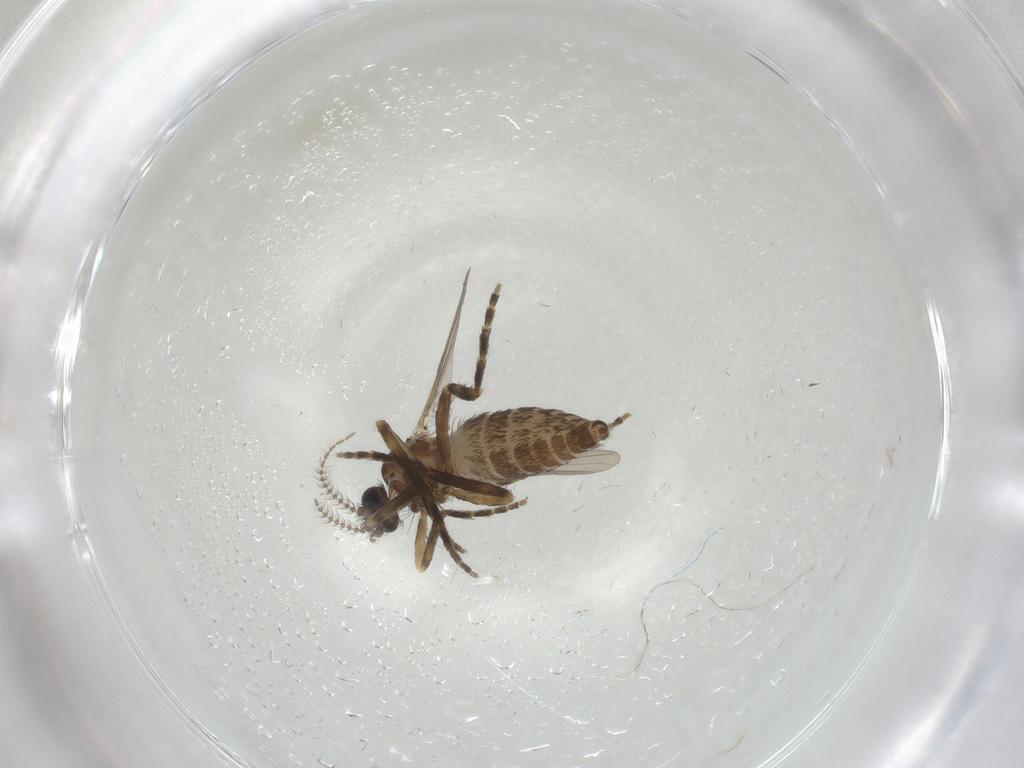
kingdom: Animalia
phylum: Arthropoda
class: Insecta
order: Diptera
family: Ceratopogonidae
